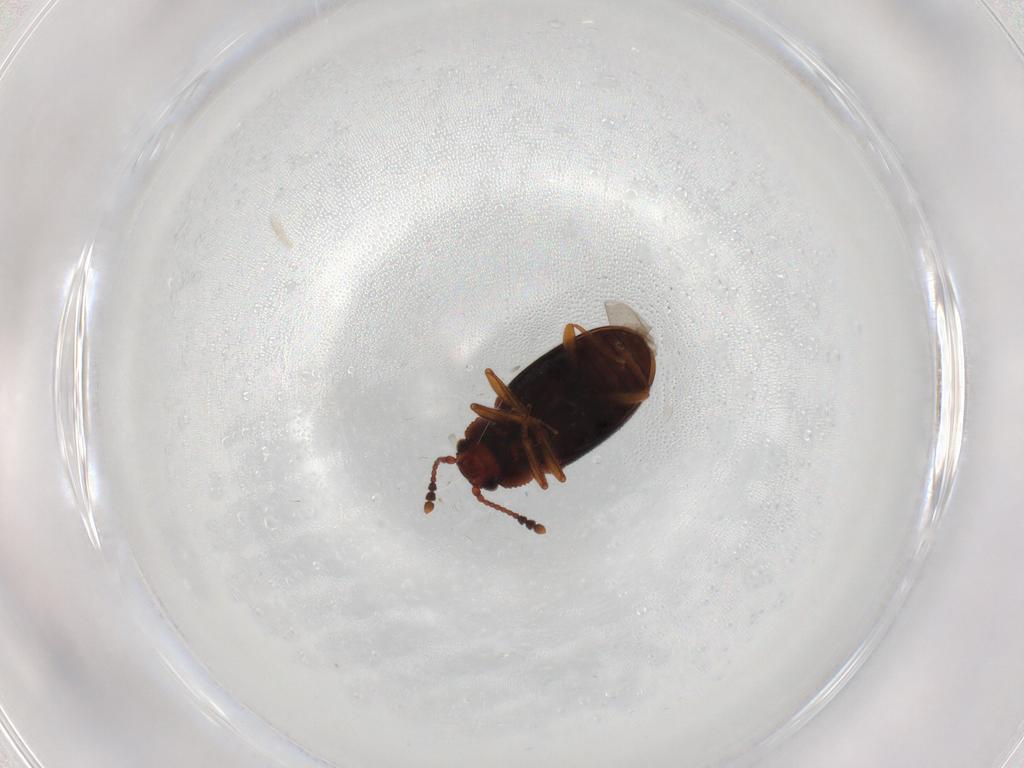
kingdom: Animalia
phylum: Arthropoda
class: Insecta
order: Coleoptera
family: Cryptophagidae
